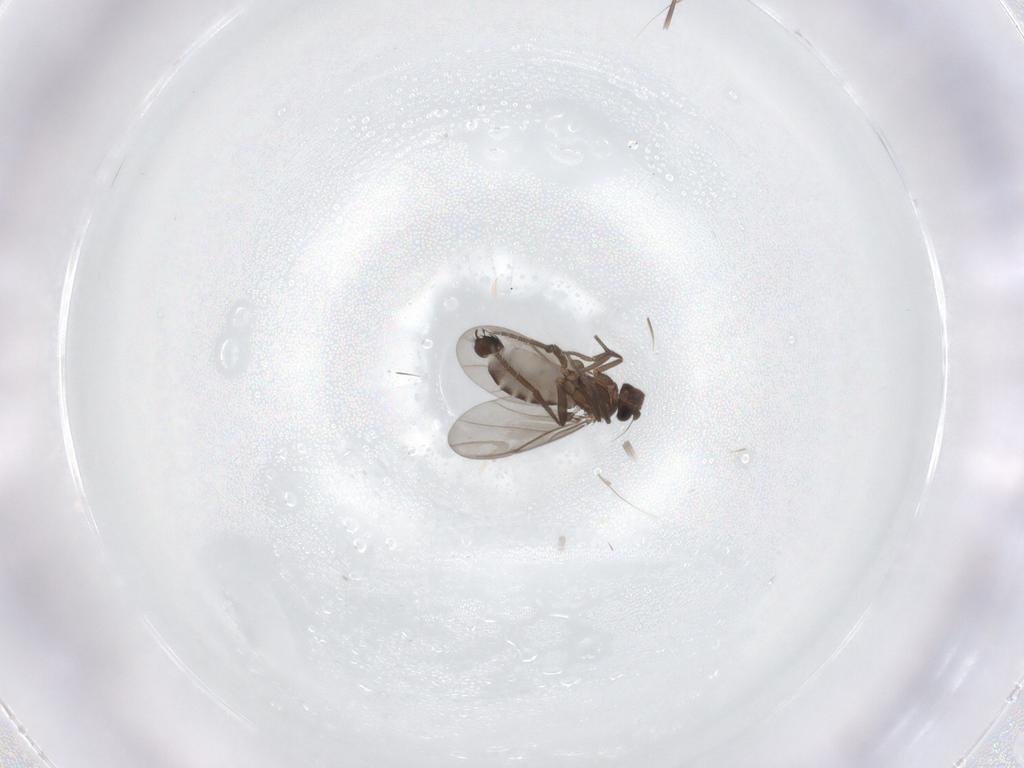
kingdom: Animalia
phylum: Arthropoda
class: Insecta
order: Diptera
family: Phoridae
